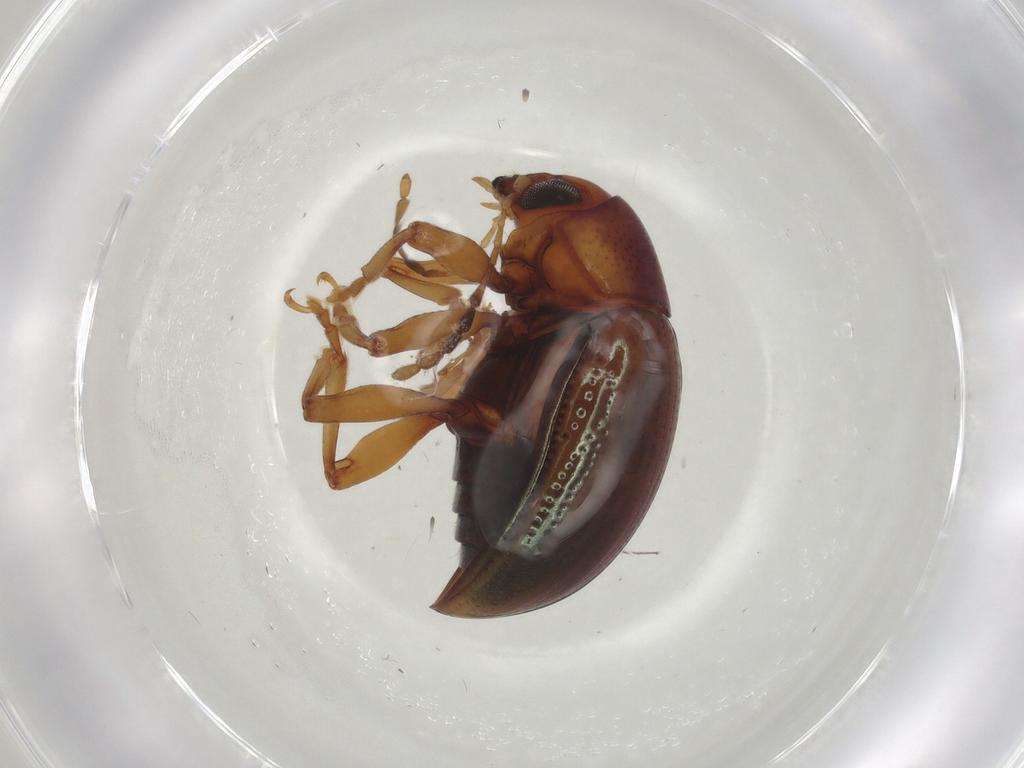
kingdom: Animalia
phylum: Arthropoda
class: Insecta
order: Coleoptera
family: Chrysomelidae
